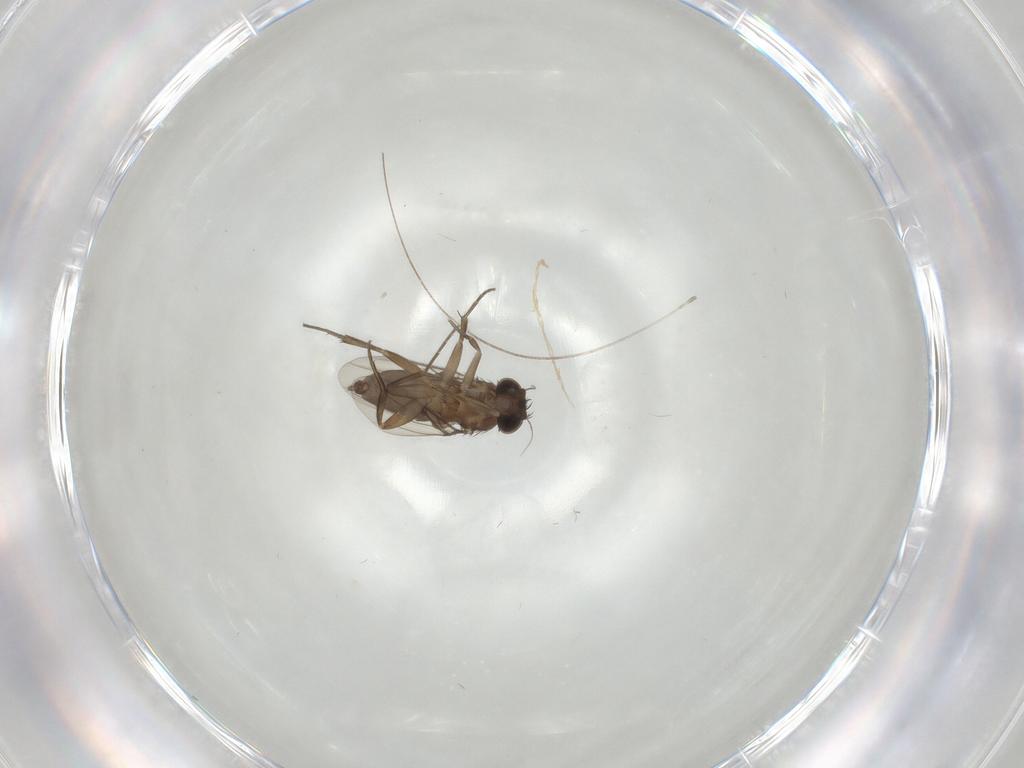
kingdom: Animalia
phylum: Arthropoda
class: Insecta
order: Diptera
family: Phoridae
